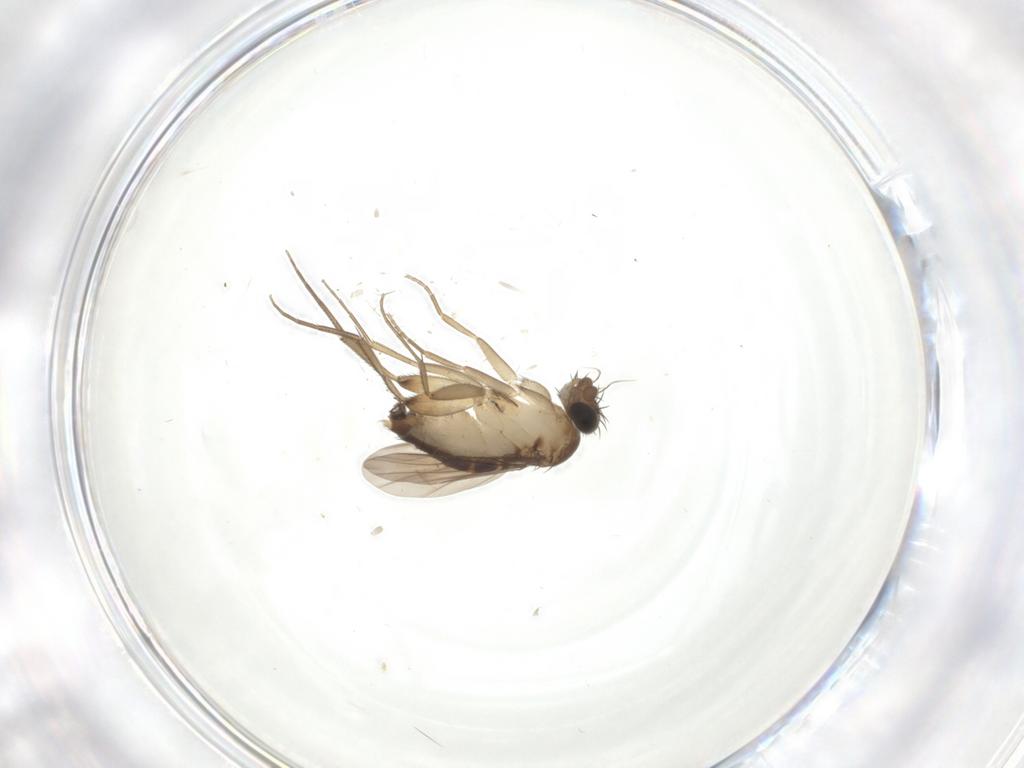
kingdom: Animalia
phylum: Arthropoda
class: Insecta
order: Diptera
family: Phoridae
